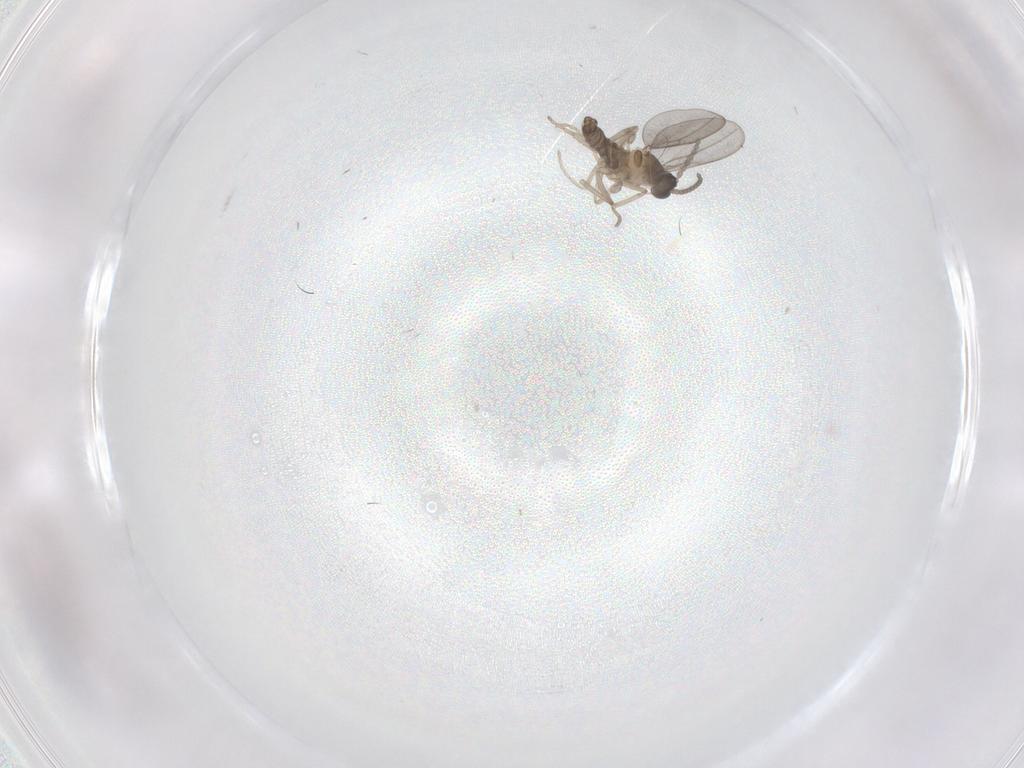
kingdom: Animalia
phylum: Arthropoda
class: Insecta
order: Diptera
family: Cecidomyiidae
